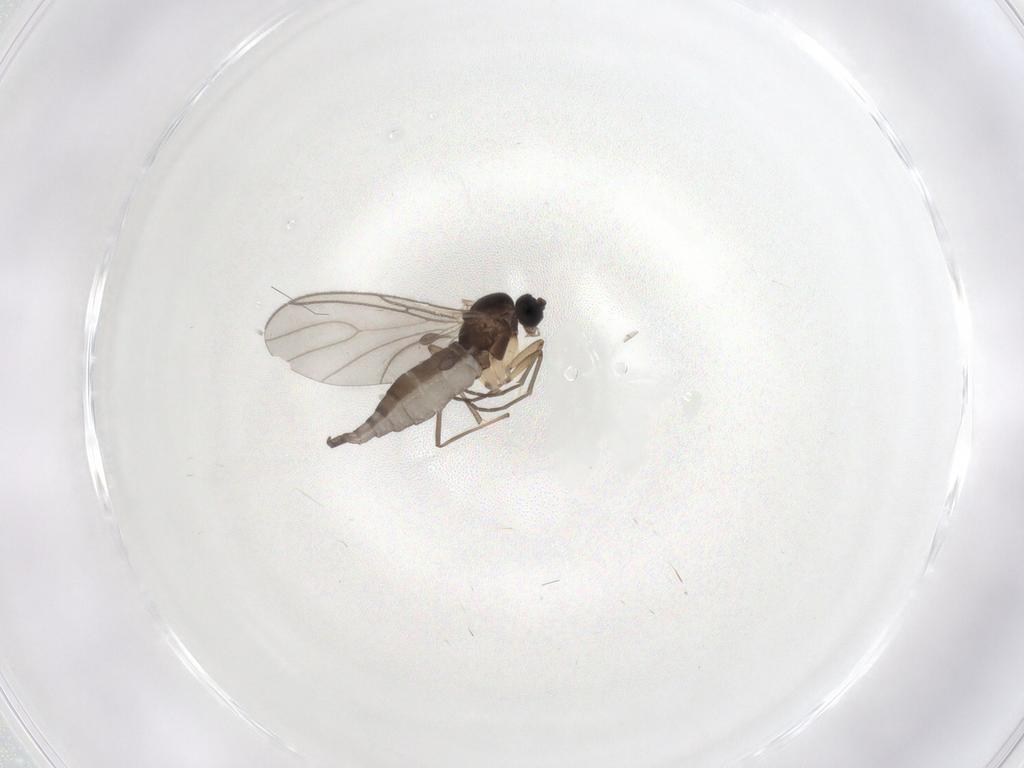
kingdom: Animalia
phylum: Arthropoda
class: Insecta
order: Diptera
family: Sciaridae
